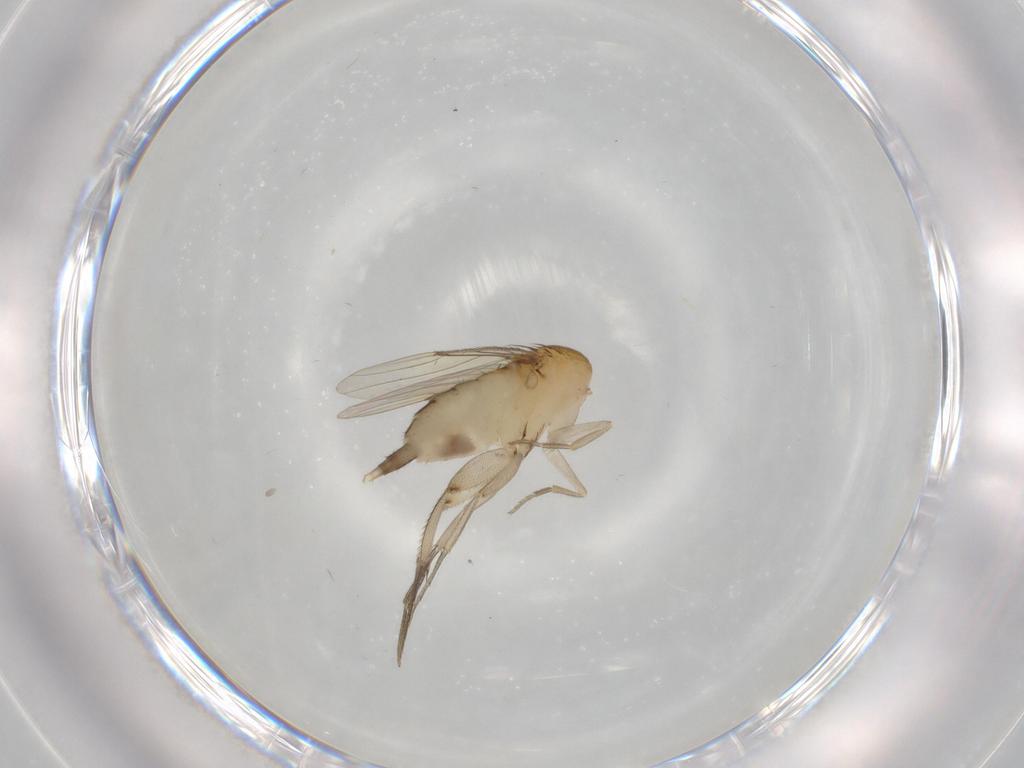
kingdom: Animalia
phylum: Arthropoda
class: Insecta
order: Diptera
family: Phoridae
